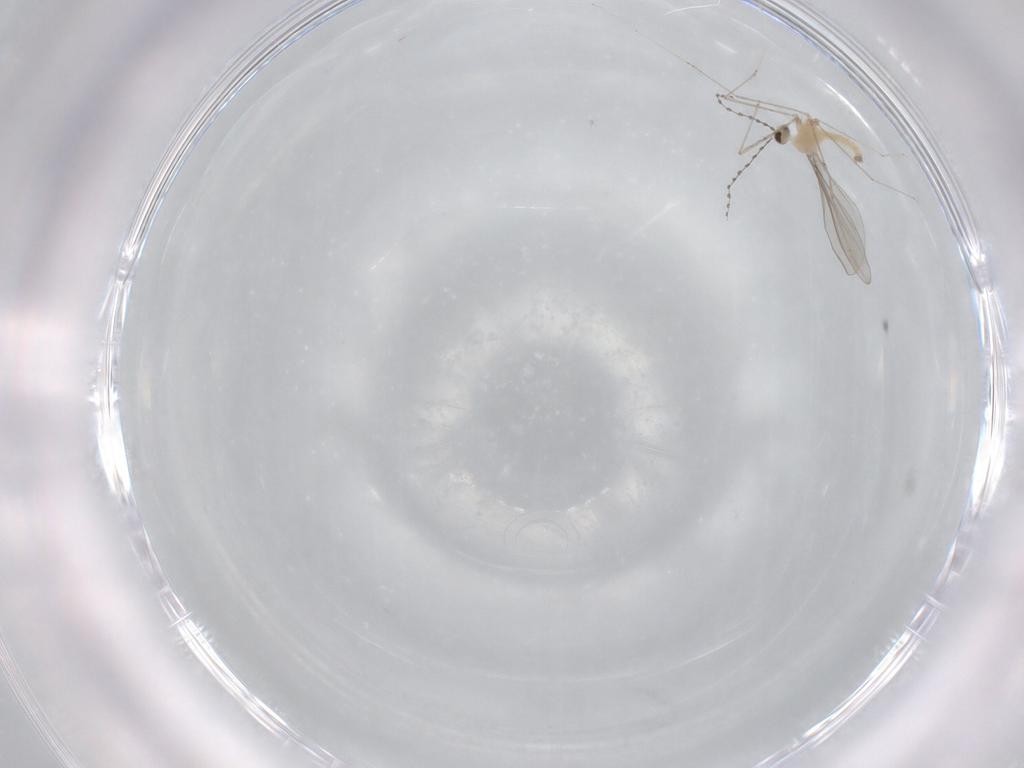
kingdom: Animalia
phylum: Arthropoda
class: Insecta
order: Diptera
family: Cecidomyiidae
